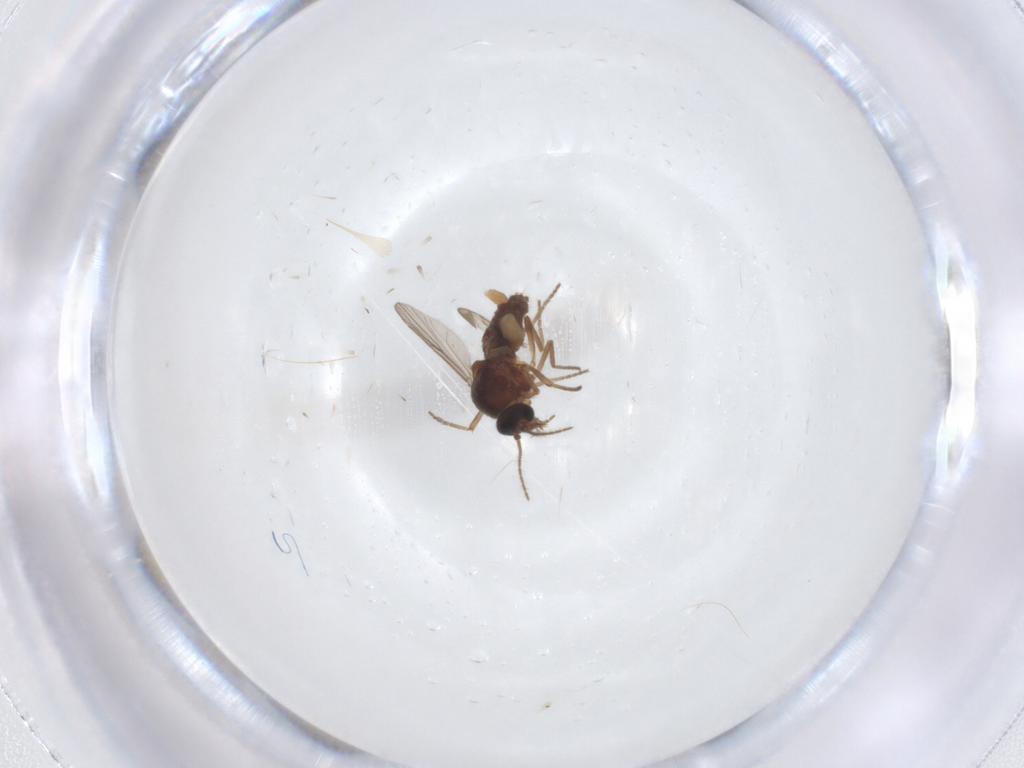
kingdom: Animalia
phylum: Arthropoda
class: Insecta
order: Diptera
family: Ceratopogonidae
